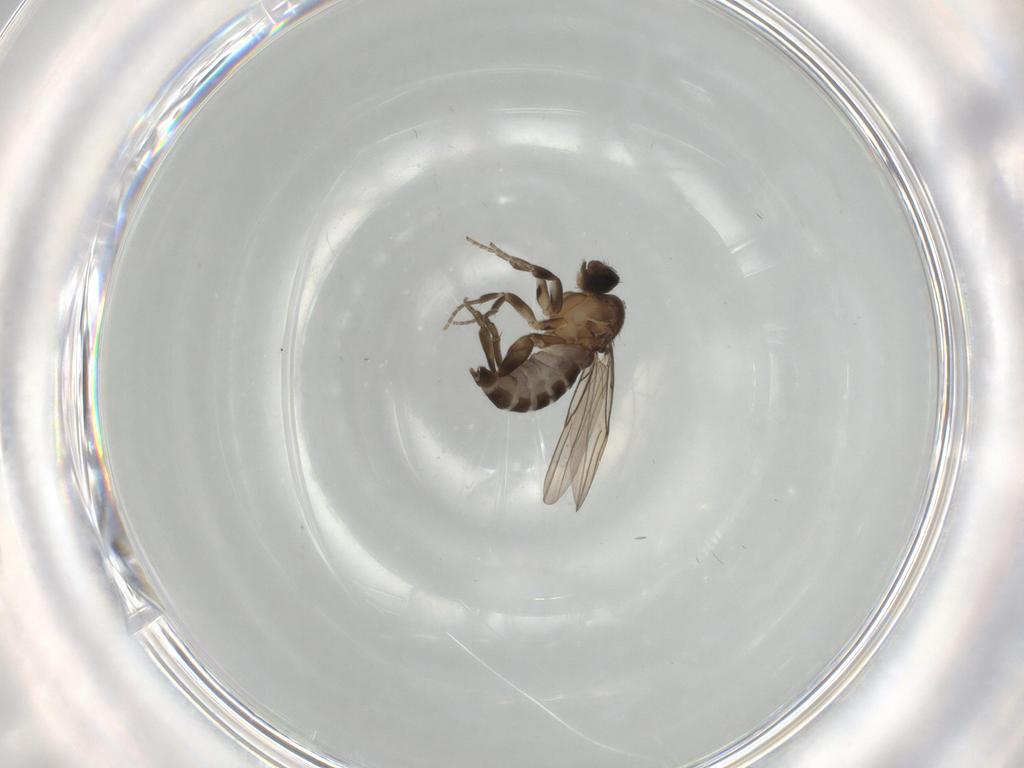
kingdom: Animalia
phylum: Arthropoda
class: Insecta
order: Diptera
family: Phoridae
